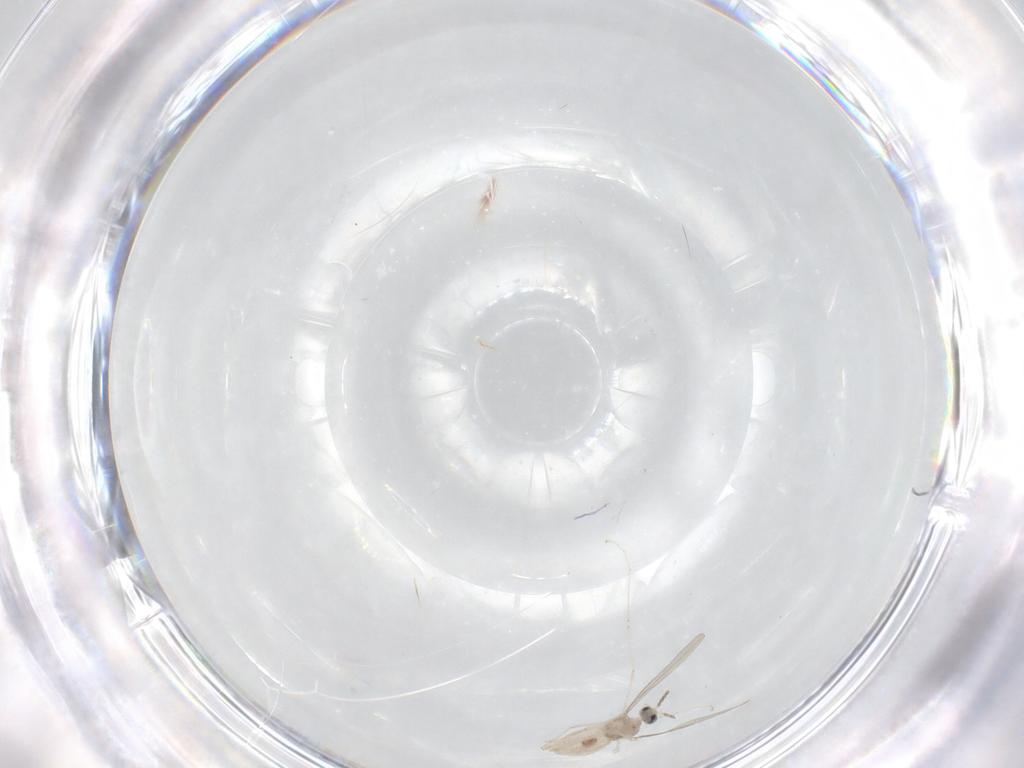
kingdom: Animalia
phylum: Arthropoda
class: Insecta
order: Diptera
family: Cecidomyiidae
